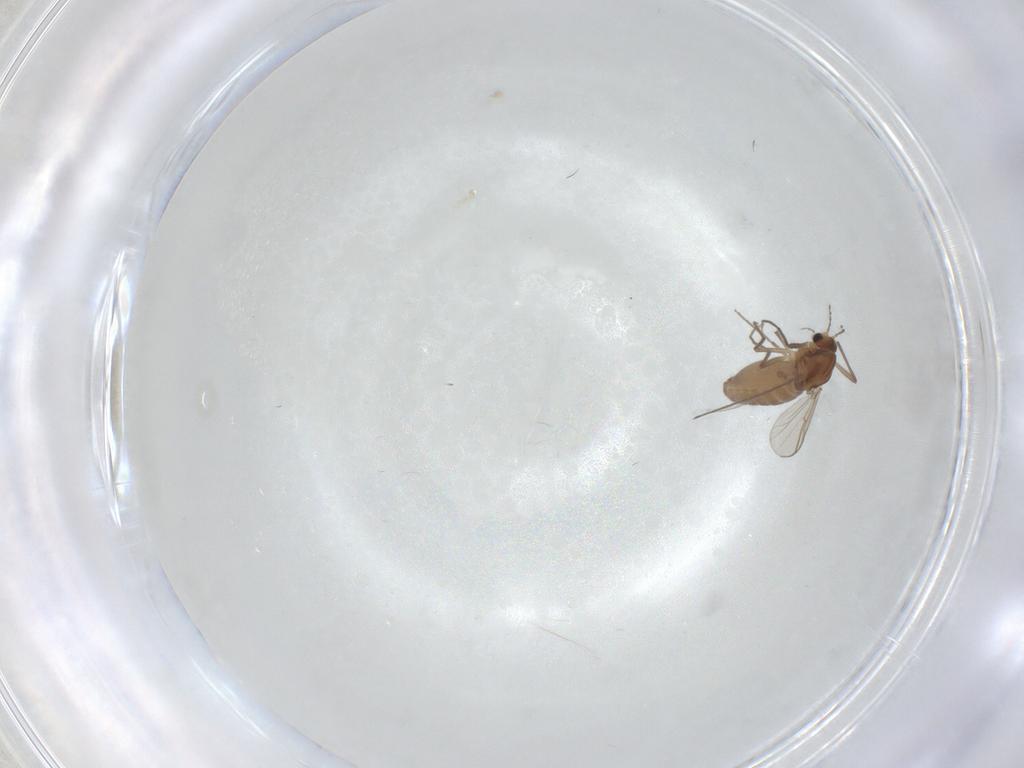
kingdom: Animalia
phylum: Arthropoda
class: Insecta
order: Diptera
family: Chironomidae
